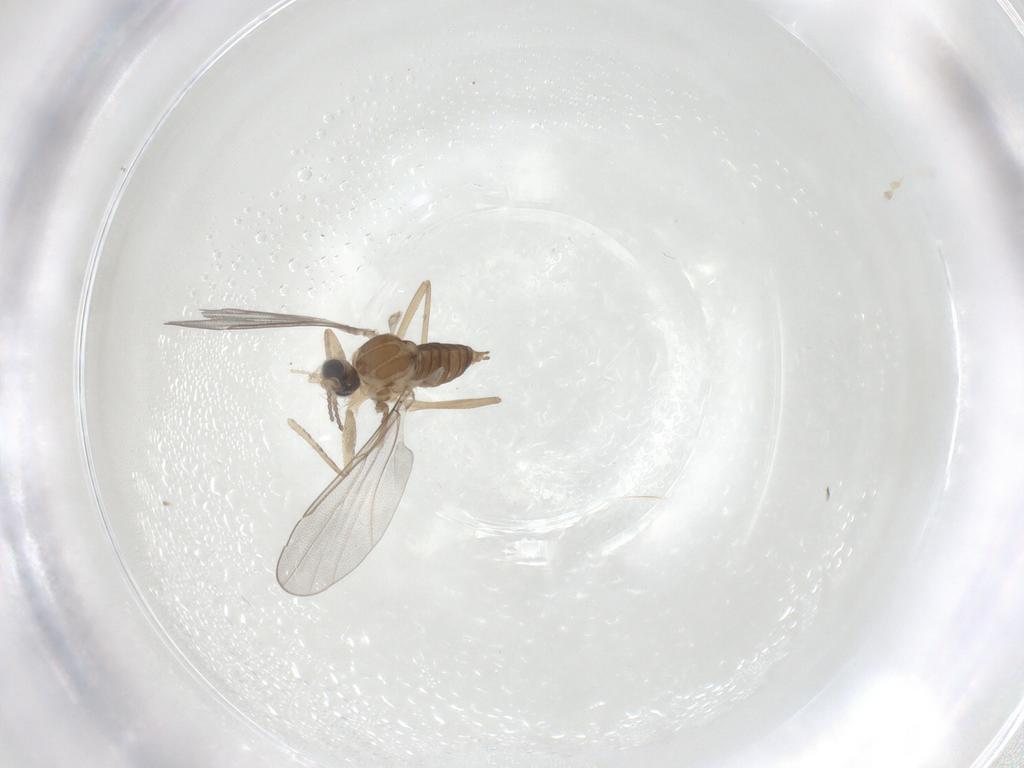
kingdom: Animalia
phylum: Arthropoda
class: Insecta
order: Diptera
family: Cecidomyiidae
